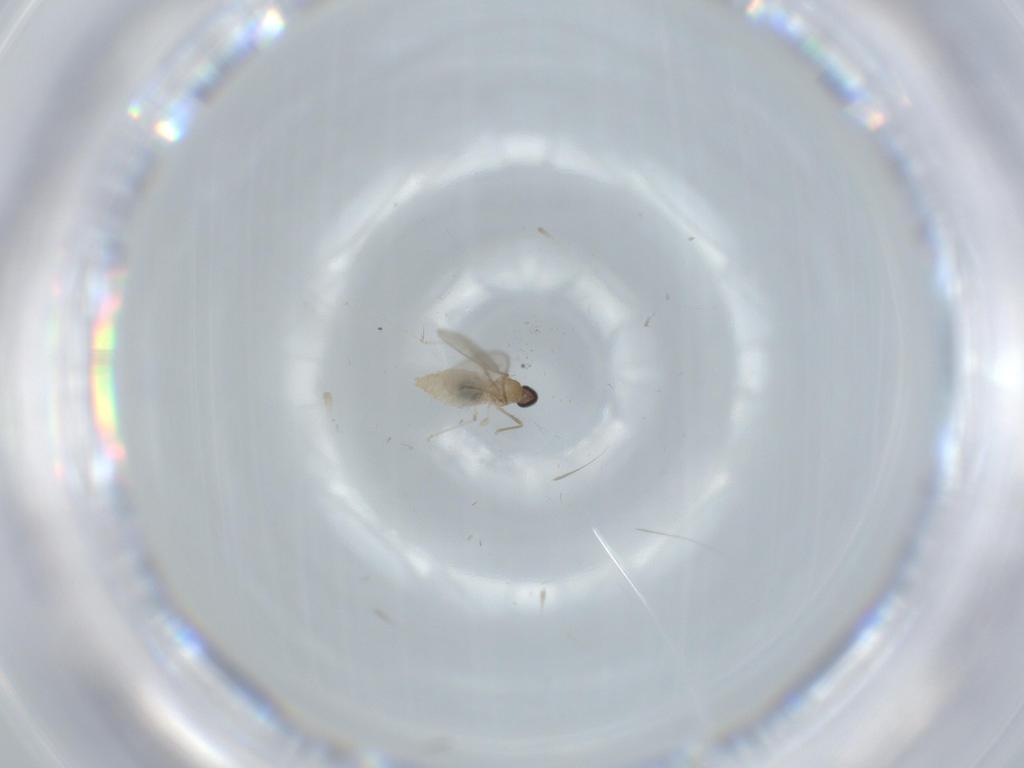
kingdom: Animalia
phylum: Arthropoda
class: Insecta
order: Diptera
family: Cecidomyiidae
